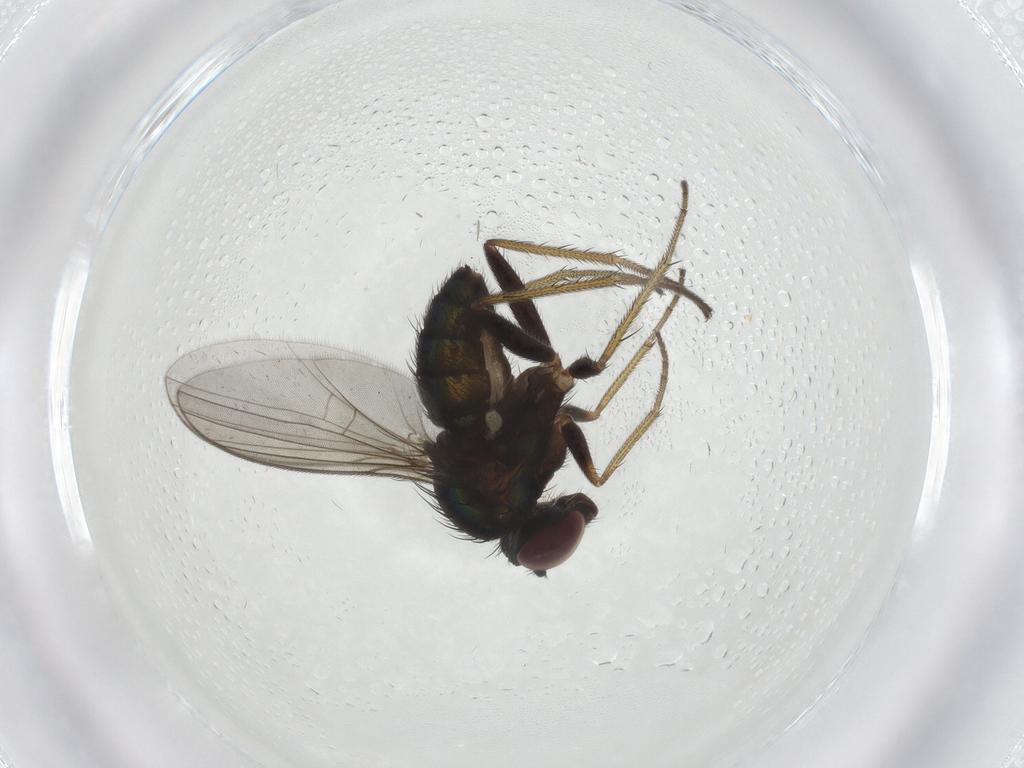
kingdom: Animalia
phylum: Arthropoda
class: Insecta
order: Diptera
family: Dolichopodidae
